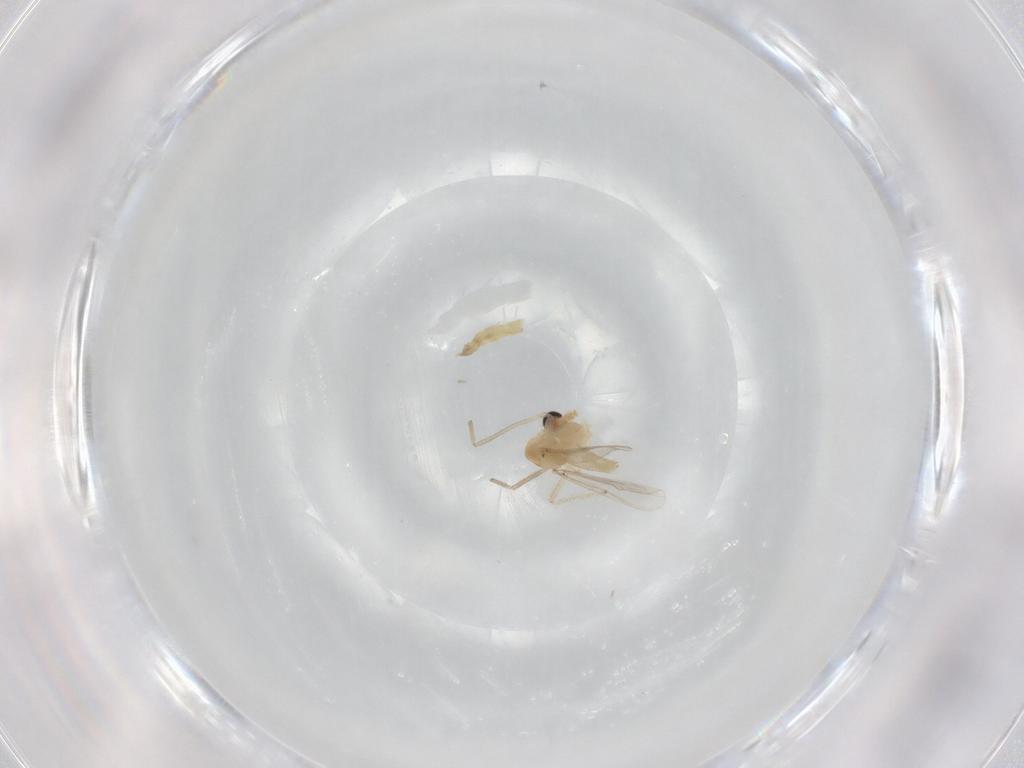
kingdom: Animalia
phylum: Arthropoda
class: Insecta
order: Diptera
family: Chironomidae
